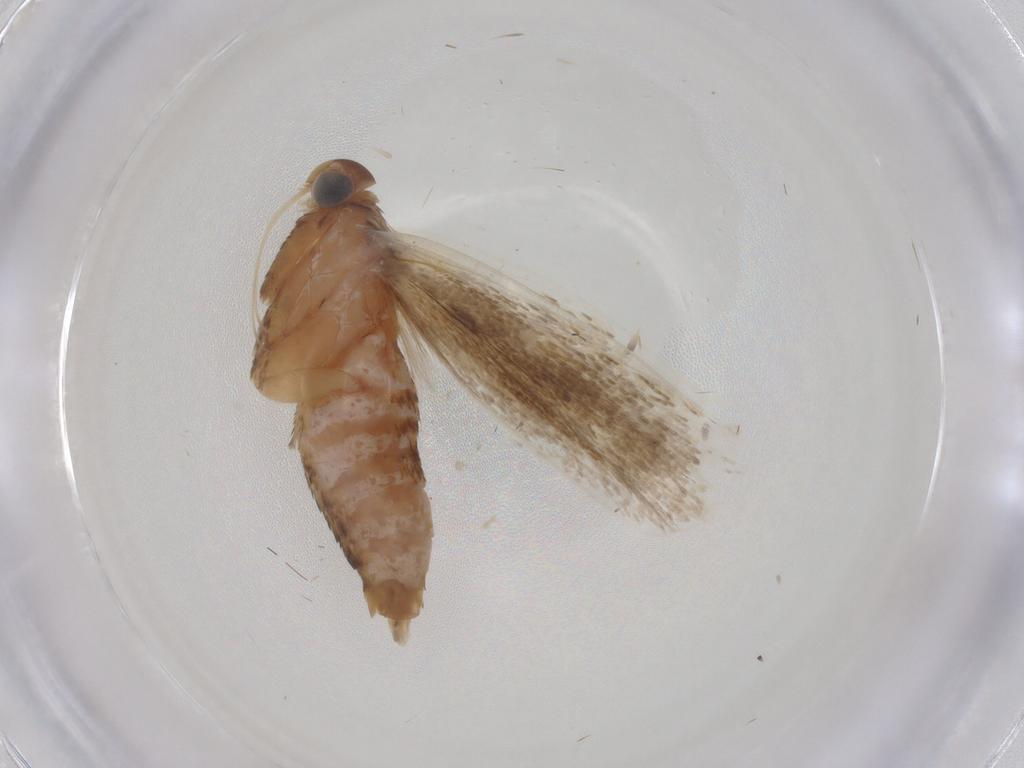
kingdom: Animalia
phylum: Arthropoda
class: Insecta
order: Lepidoptera
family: Gelechiidae
